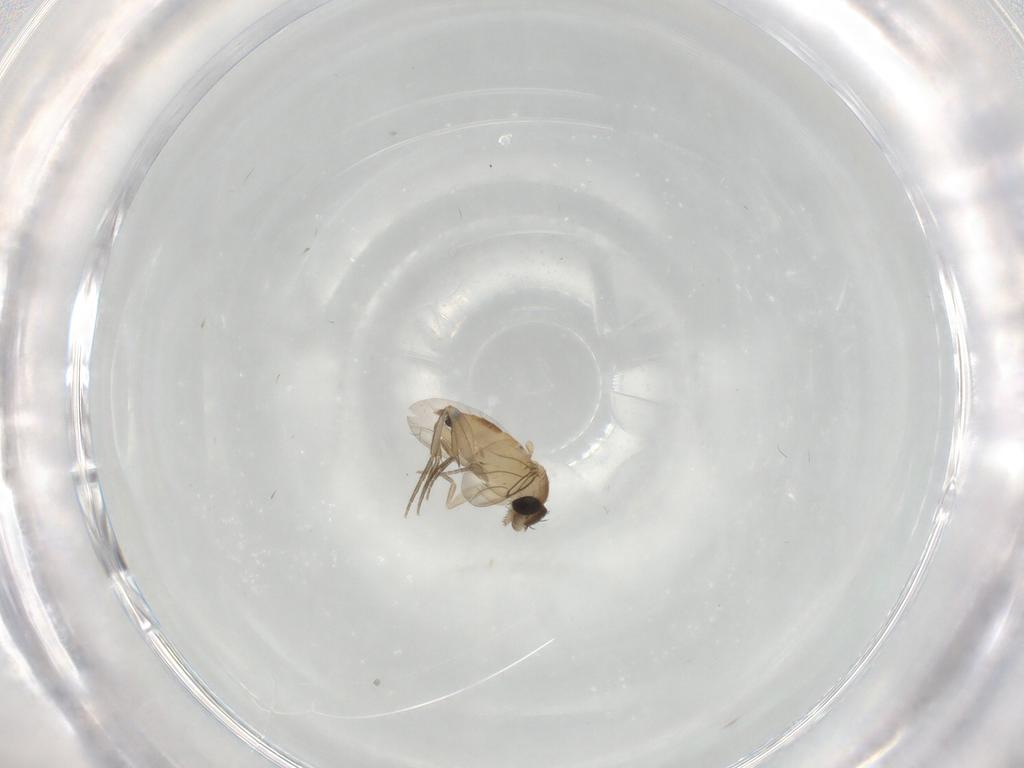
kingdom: Animalia
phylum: Arthropoda
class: Insecta
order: Diptera
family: Phoridae
